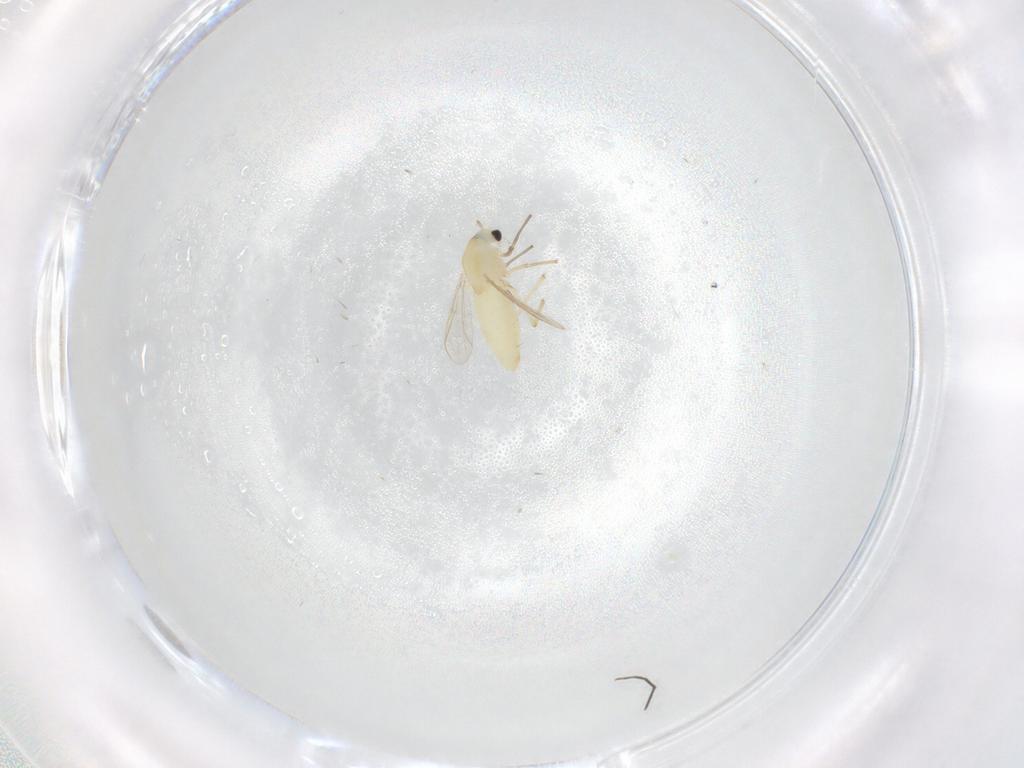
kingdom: Animalia
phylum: Arthropoda
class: Insecta
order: Diptera
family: Chironomidae
